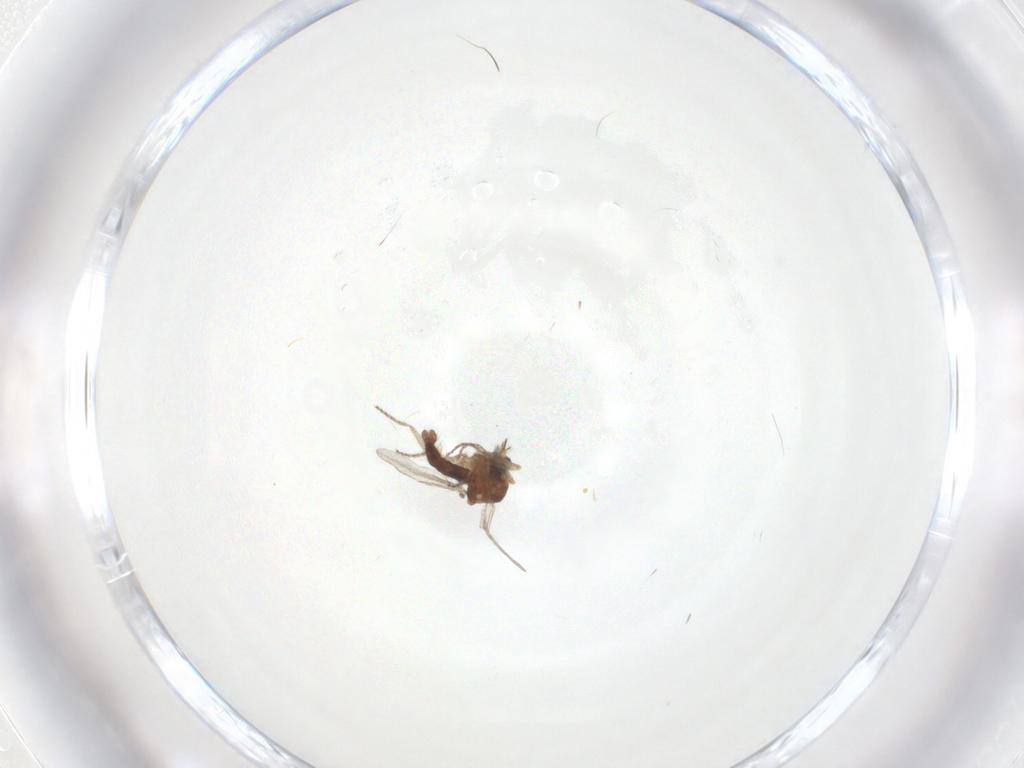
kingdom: Animalia
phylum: Arthropoda
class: Insecta
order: Diptera
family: Ceratopogonidae
